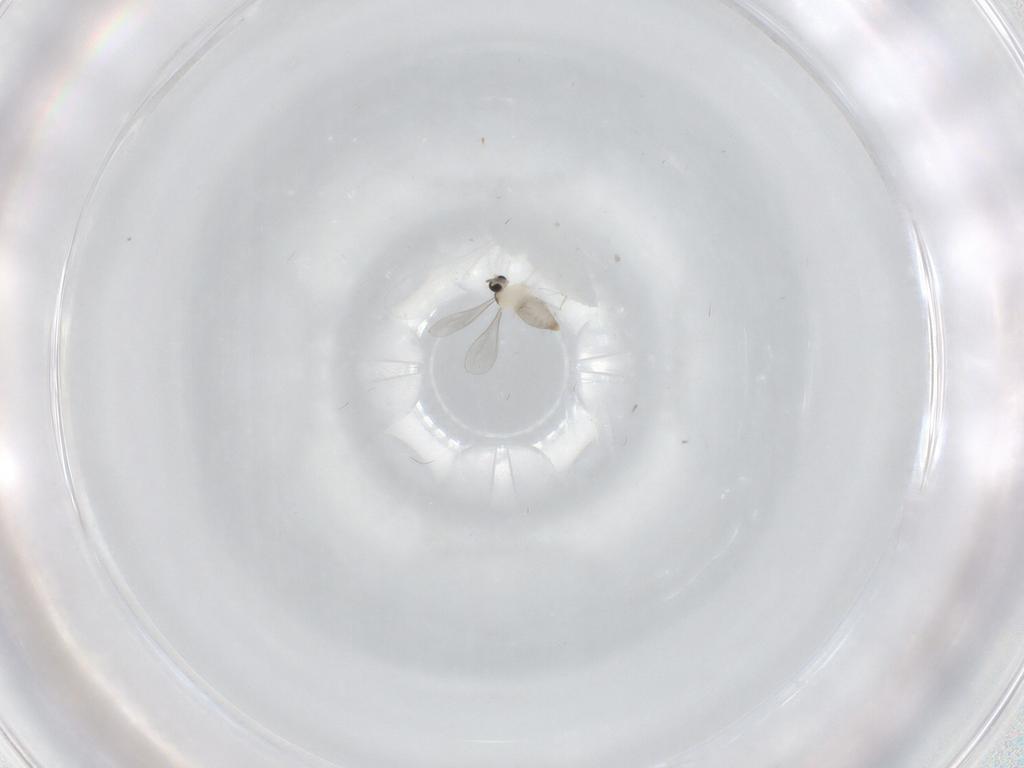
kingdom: Animalia
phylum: Arthropoda
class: Insecta
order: Diptera
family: Cecidomyiidae
